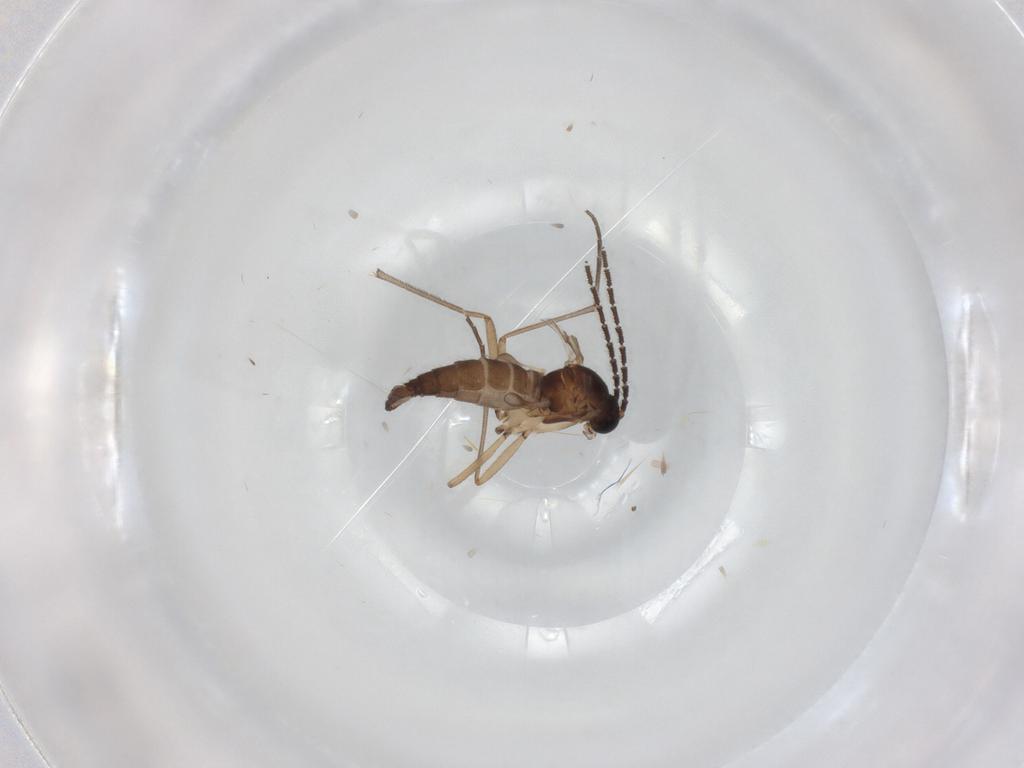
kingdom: Animalia
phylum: Arthropoda
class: Insecta
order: Diptera
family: Sciaridae
